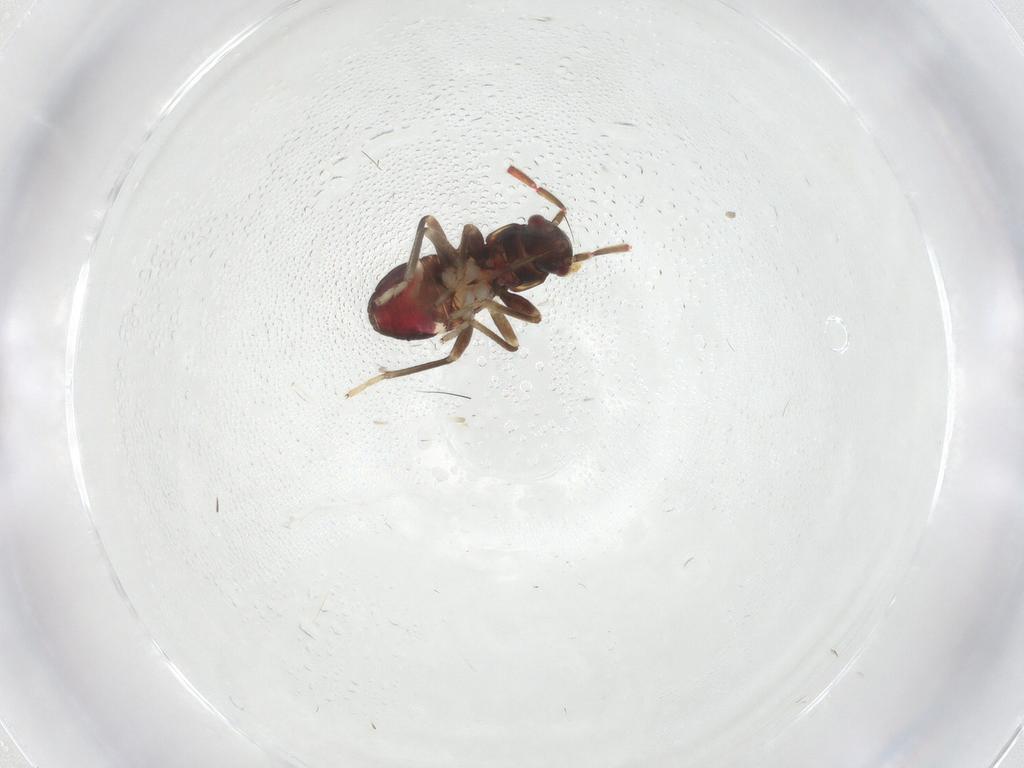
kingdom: Animalia
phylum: Arthropoda
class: Insecta
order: Hemiptera
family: Rhyparochromidae
